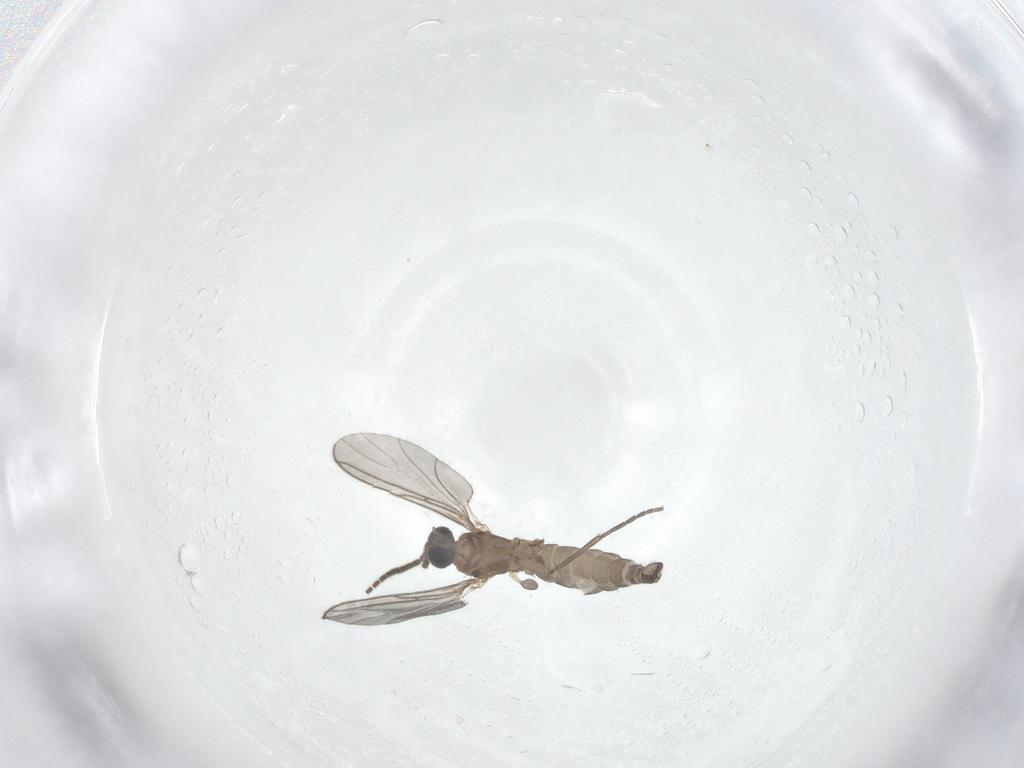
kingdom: Animalia
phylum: Arthropoda
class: Insecta
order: Diptera
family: Sciaridae
